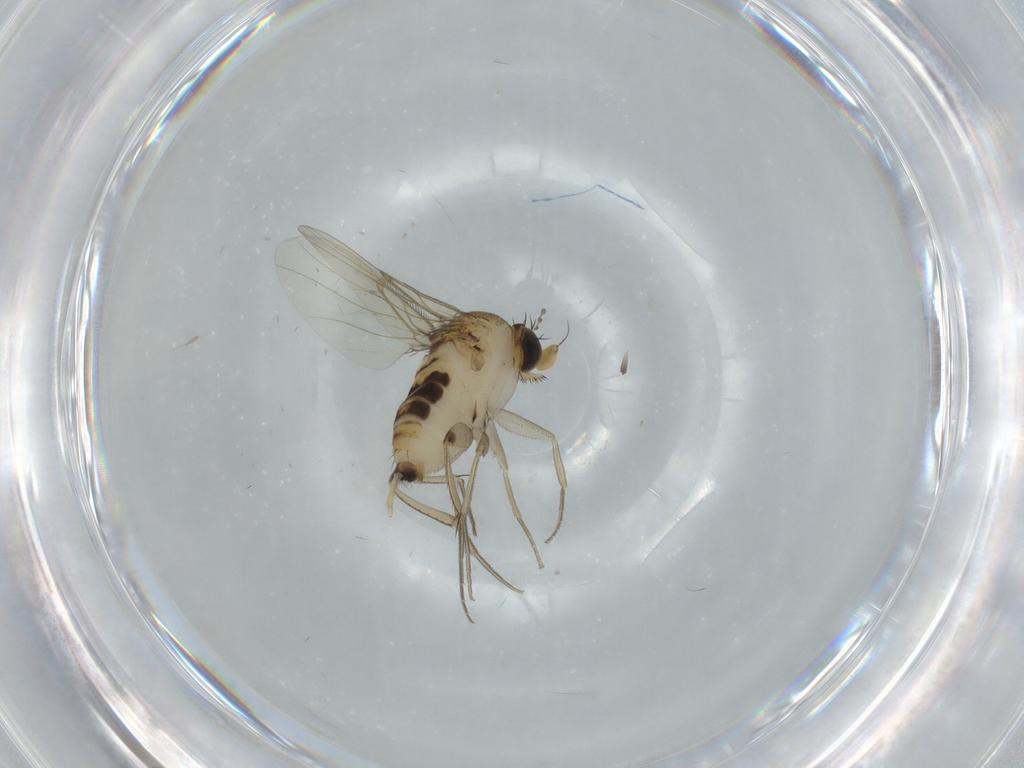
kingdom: Animalia
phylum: Arthropoda
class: Insecta
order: Diptera
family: Phoridae
